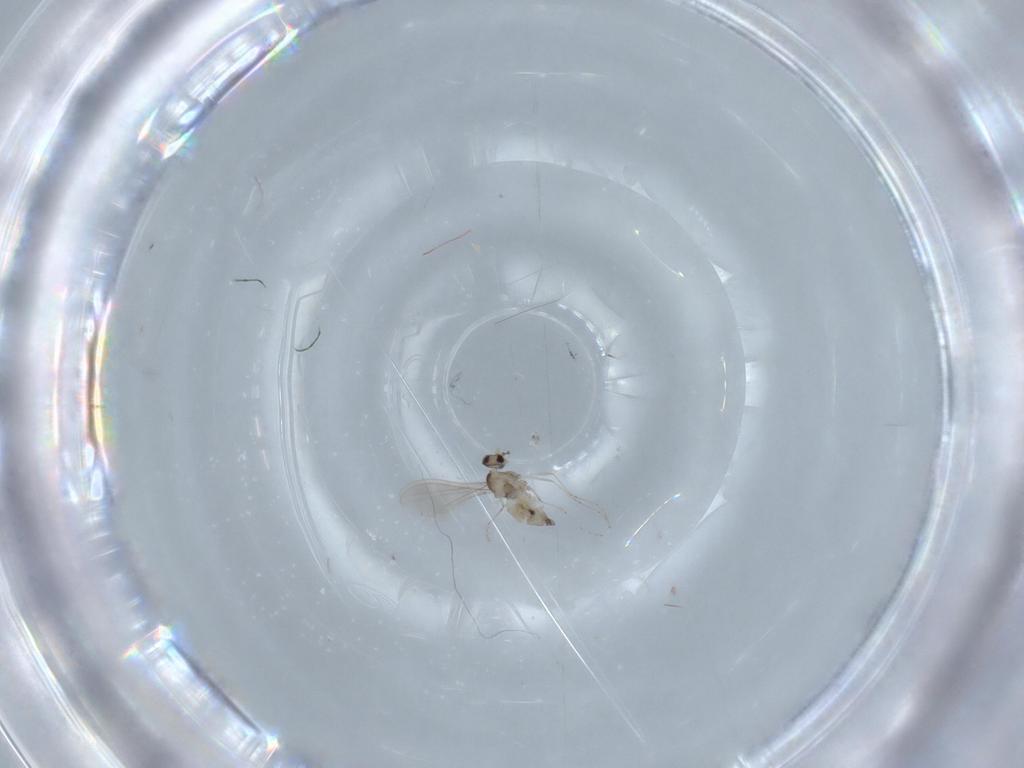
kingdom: Animalia
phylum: Arthropoda
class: Insecta
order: Diptera
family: Cecidomyiidae
